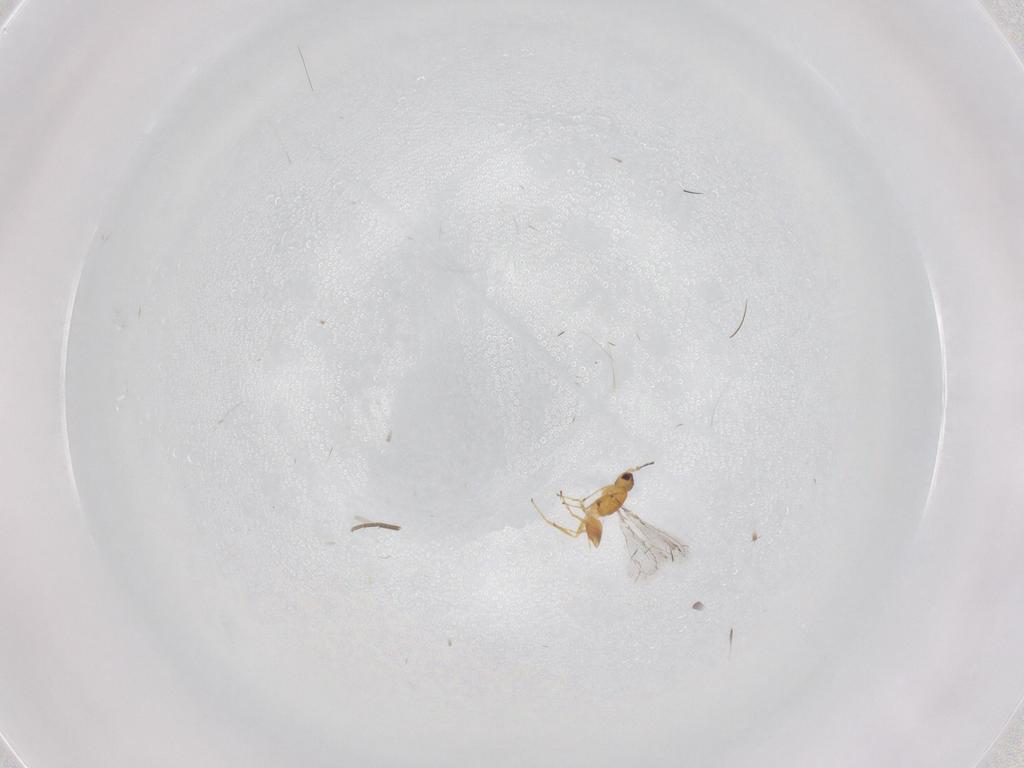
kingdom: Animalia
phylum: Arthropoda
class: Insecta
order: Hymenoptera
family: Mymaridae
